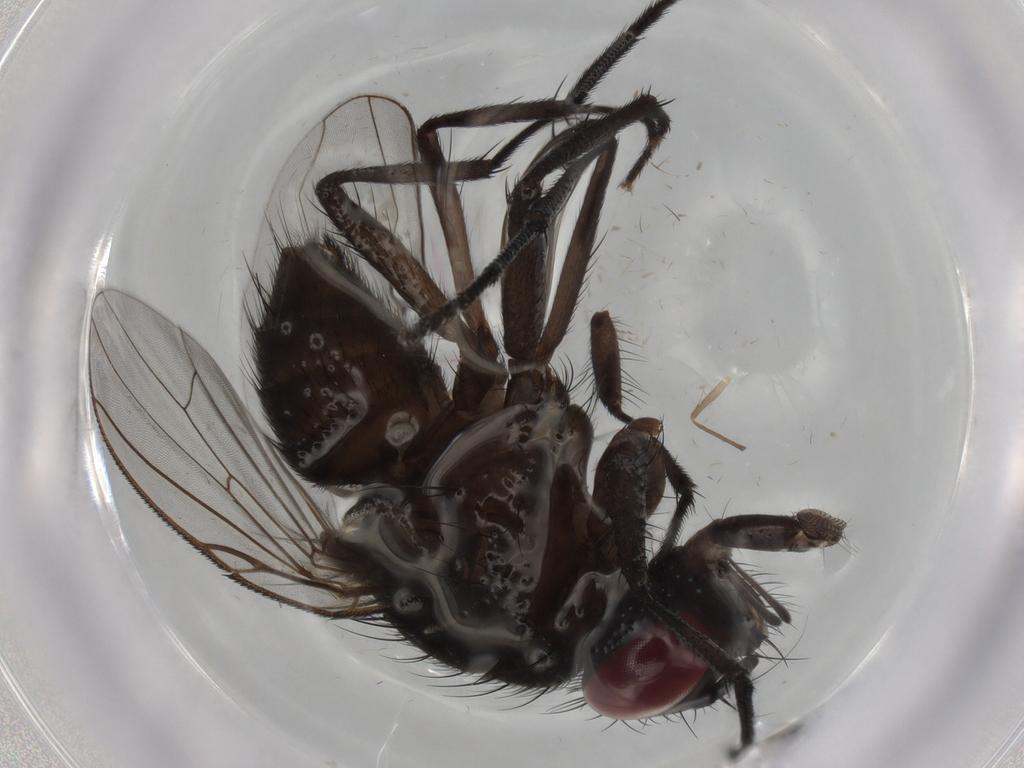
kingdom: Animalia
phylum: Arthropoda
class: Insecta
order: Diptera
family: Muscidae
